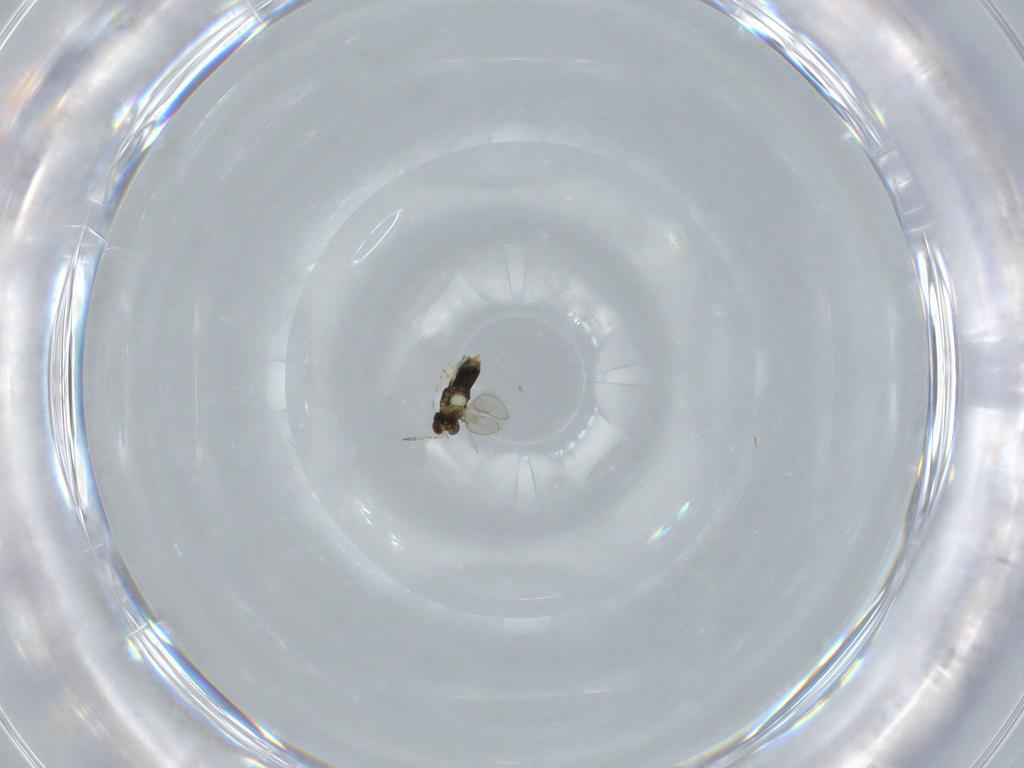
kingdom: Animalia
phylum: Arthropoda
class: Insecta
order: Hymenoptera
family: Aphelinidae
